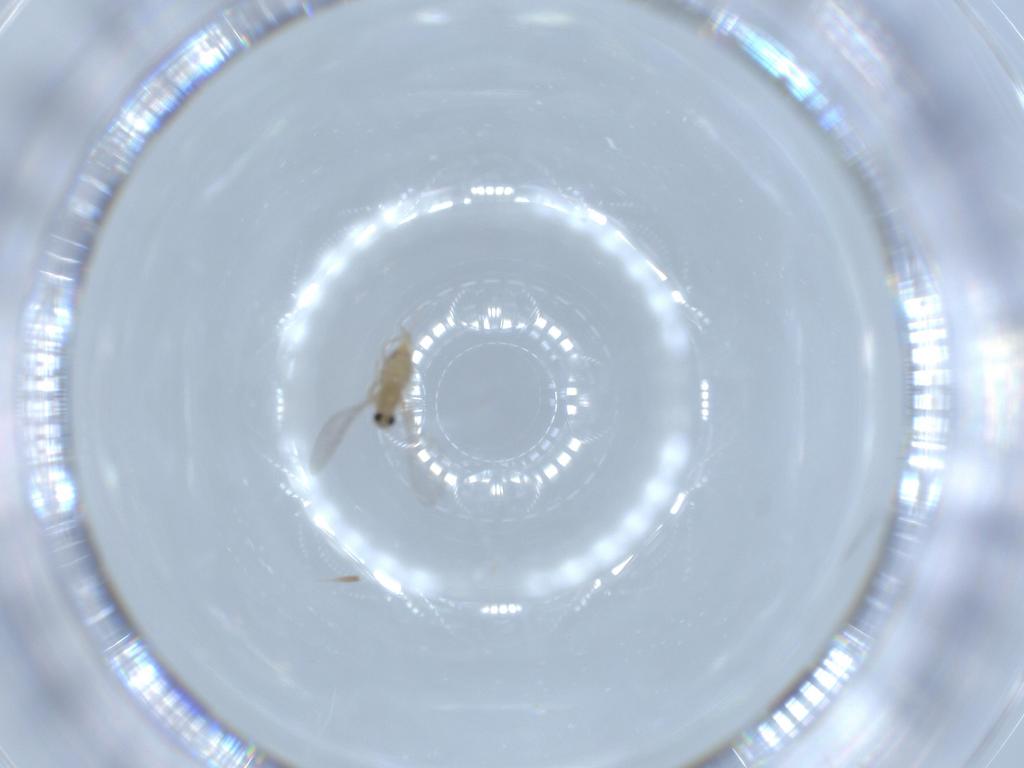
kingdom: Animalia
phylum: Arthropoda
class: Insecta
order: Diptera
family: Cecidomyiidae
